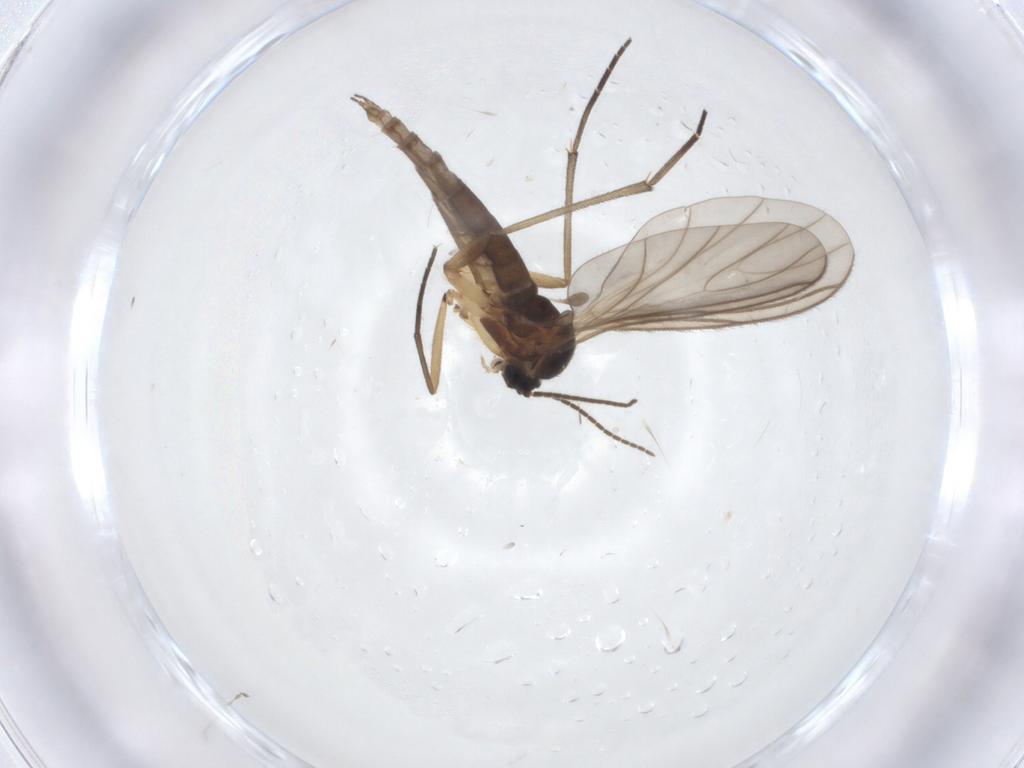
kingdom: Animalia
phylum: Arthropoda
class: Insecta
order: Diptera
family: Sciaridae
